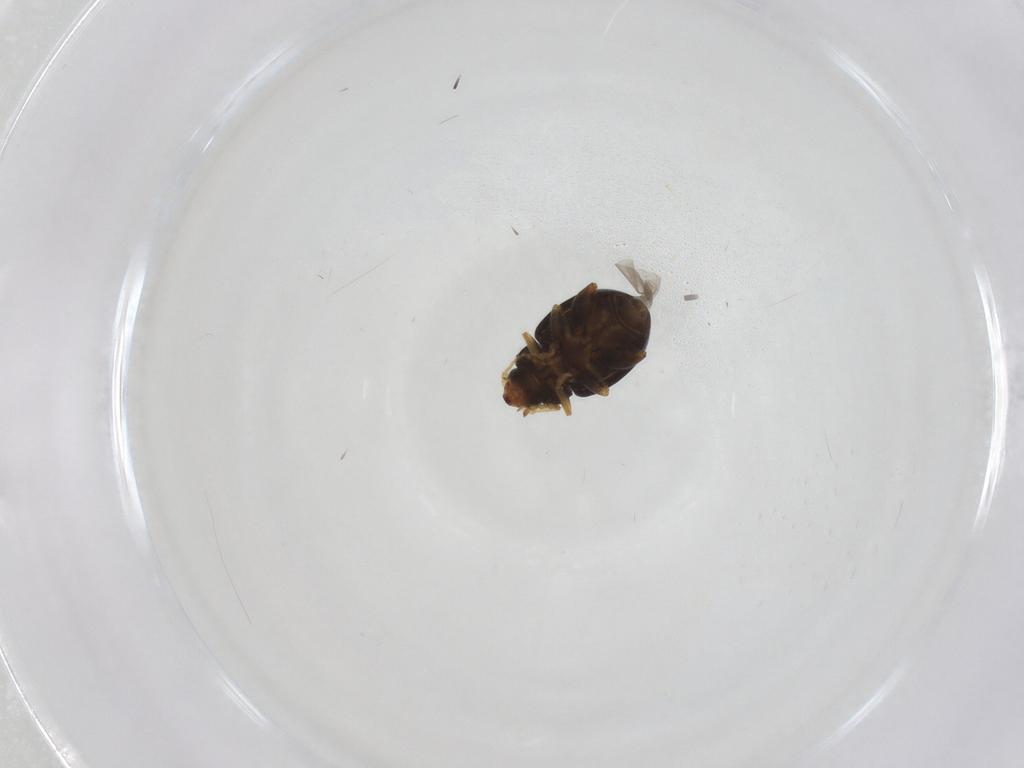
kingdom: Animalia
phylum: Arthropoda
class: Insecta
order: Coleoptera
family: Chrysomelidae
